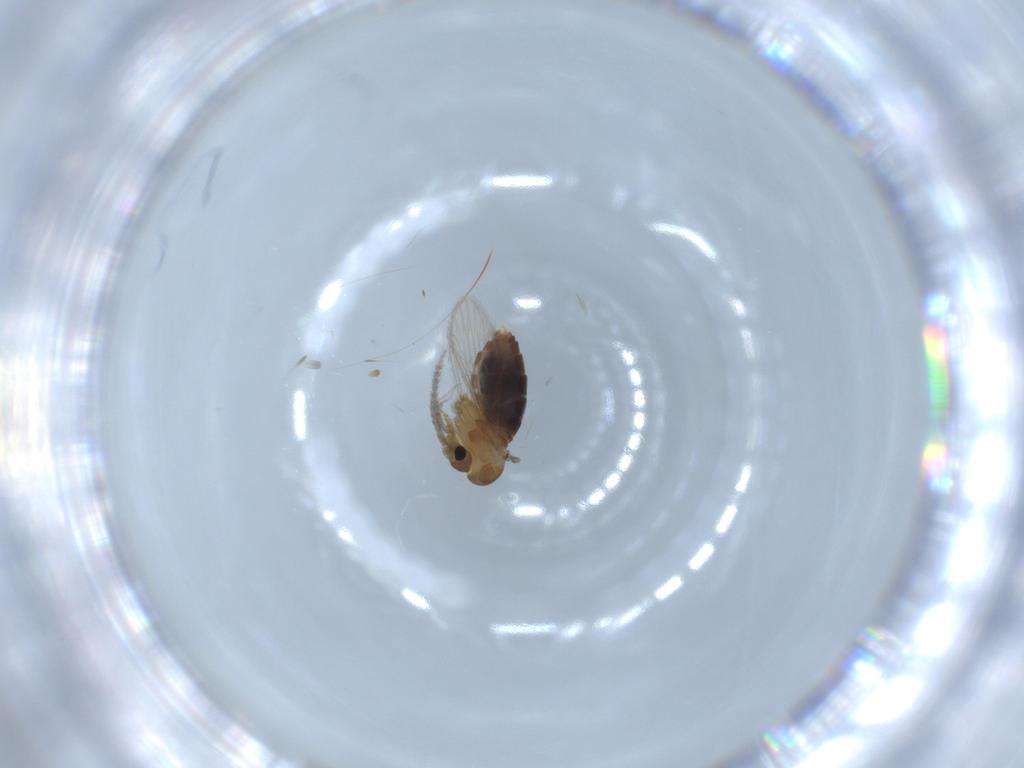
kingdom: Animalia
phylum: Arthropoda
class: Insecta
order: Diptera
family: Psychodidae
